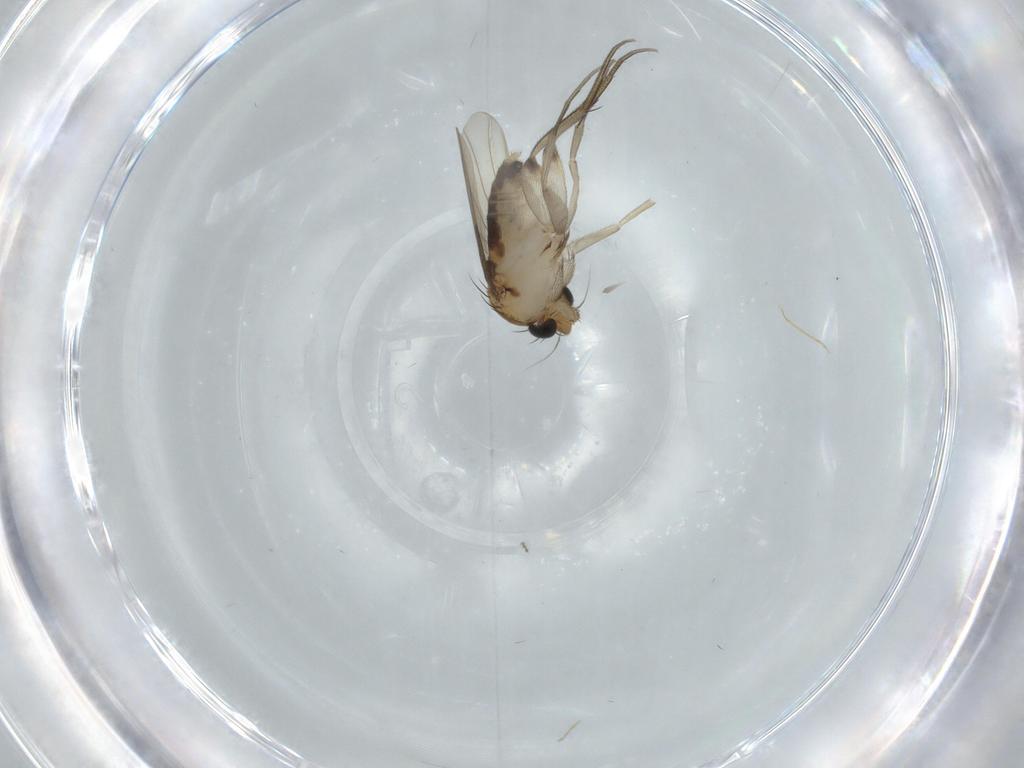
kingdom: Animalia
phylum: Arthropoda
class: Insecta
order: Diptera
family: Phoridae
